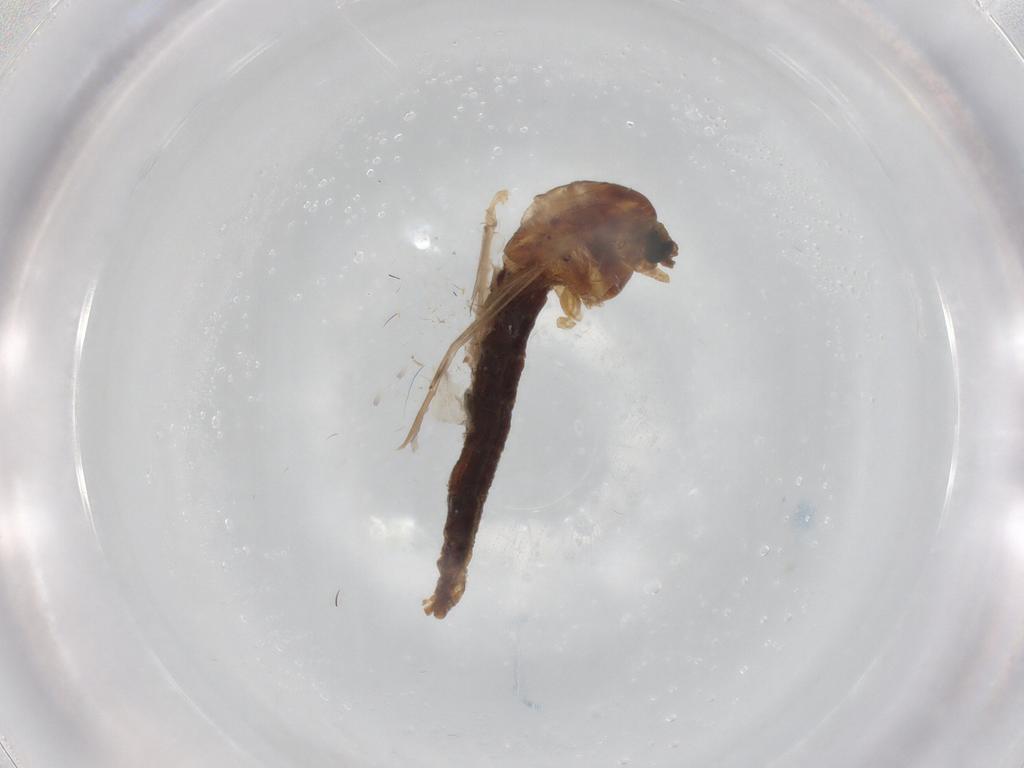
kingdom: Animalia
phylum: Arthropoda
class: Insecta
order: Diptera
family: Chironomidae
